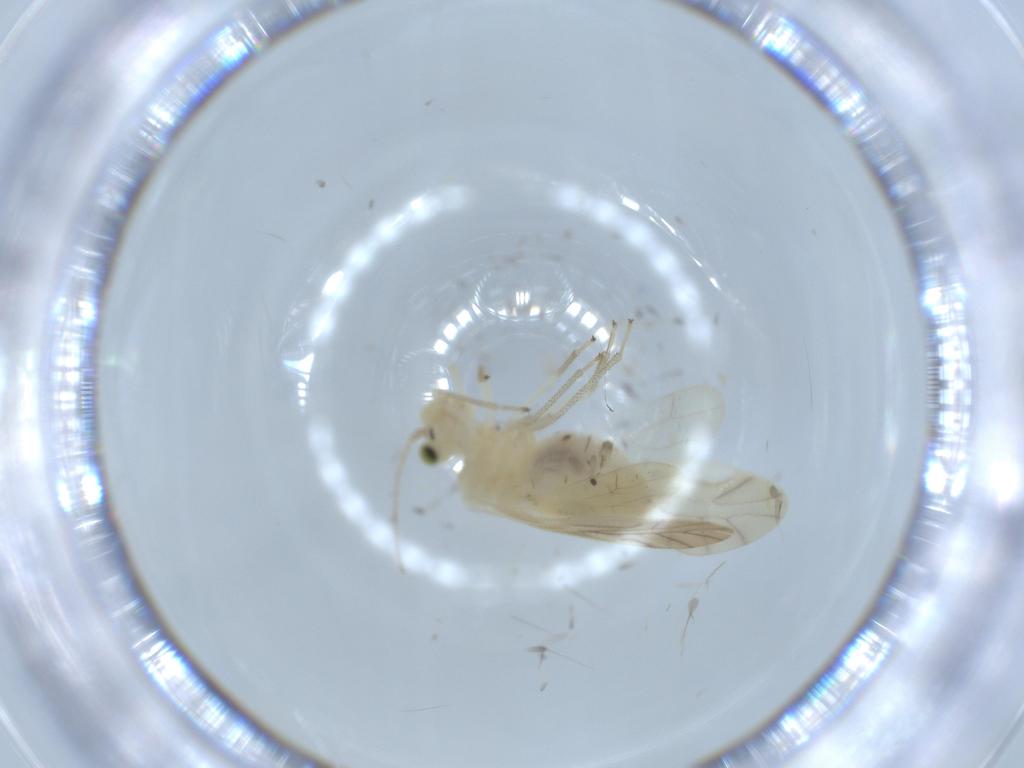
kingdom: Animalia
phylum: Arthropoda
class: Insecta
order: Psocodea
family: Caeciliusidae
